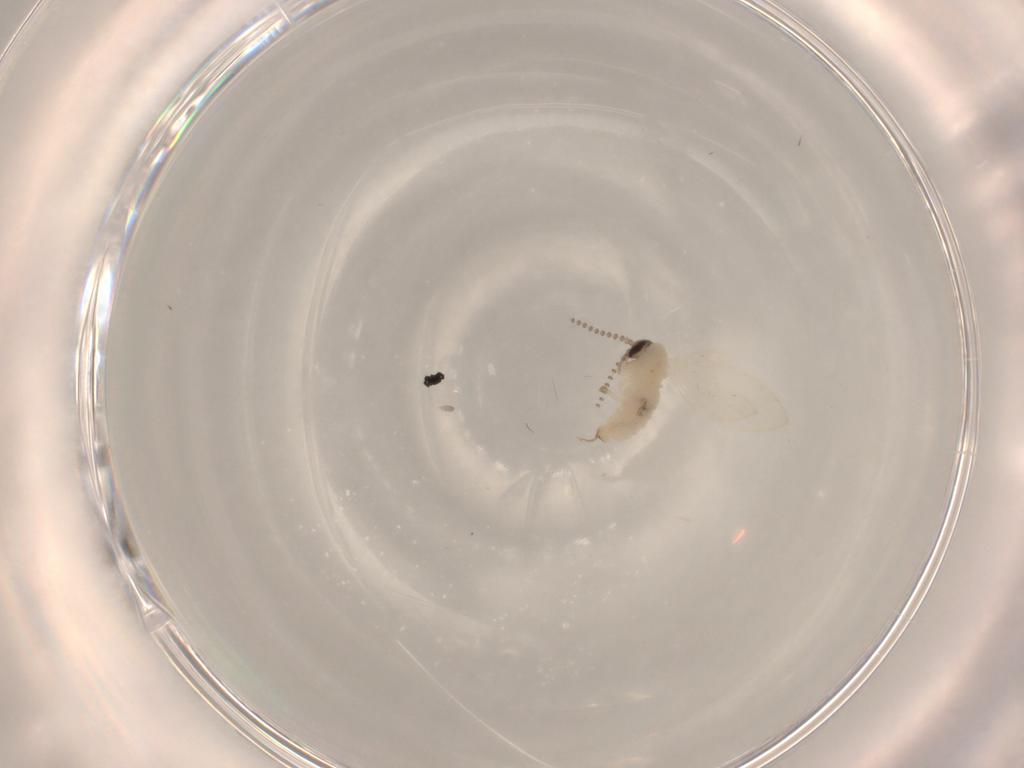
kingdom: Animalia
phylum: Arthropoda
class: Insecta
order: Diptera
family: Psychodidae
